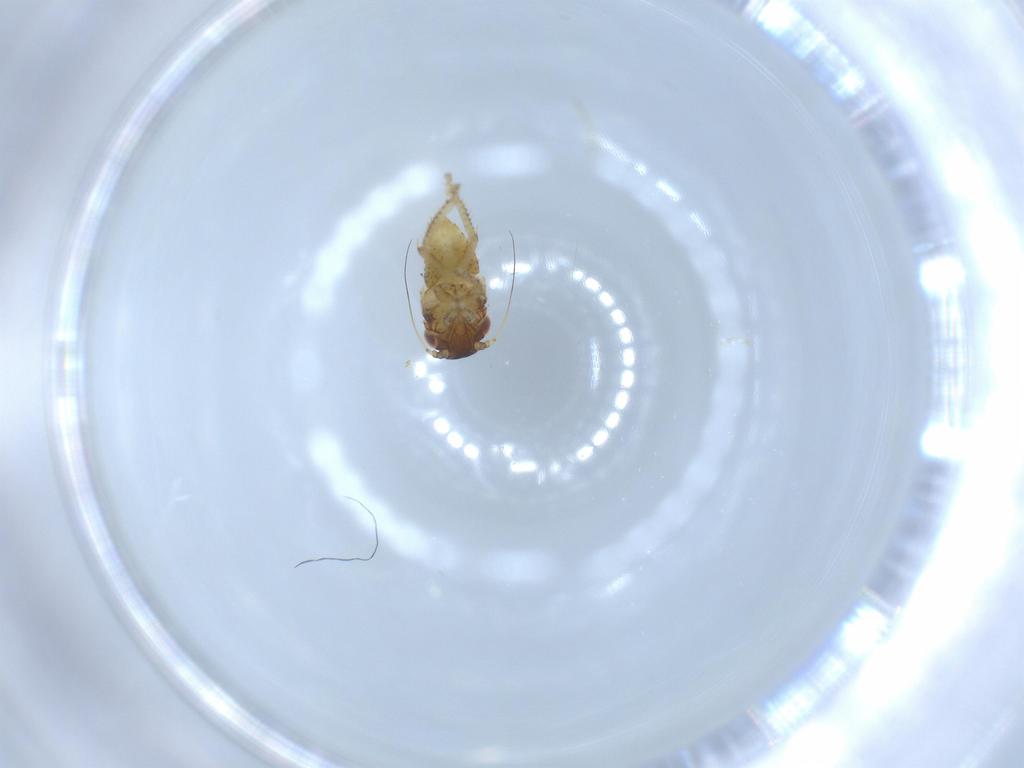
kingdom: Animalia
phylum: Arthropoda
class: Insecta
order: Hemiptera
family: Cicadellidae
